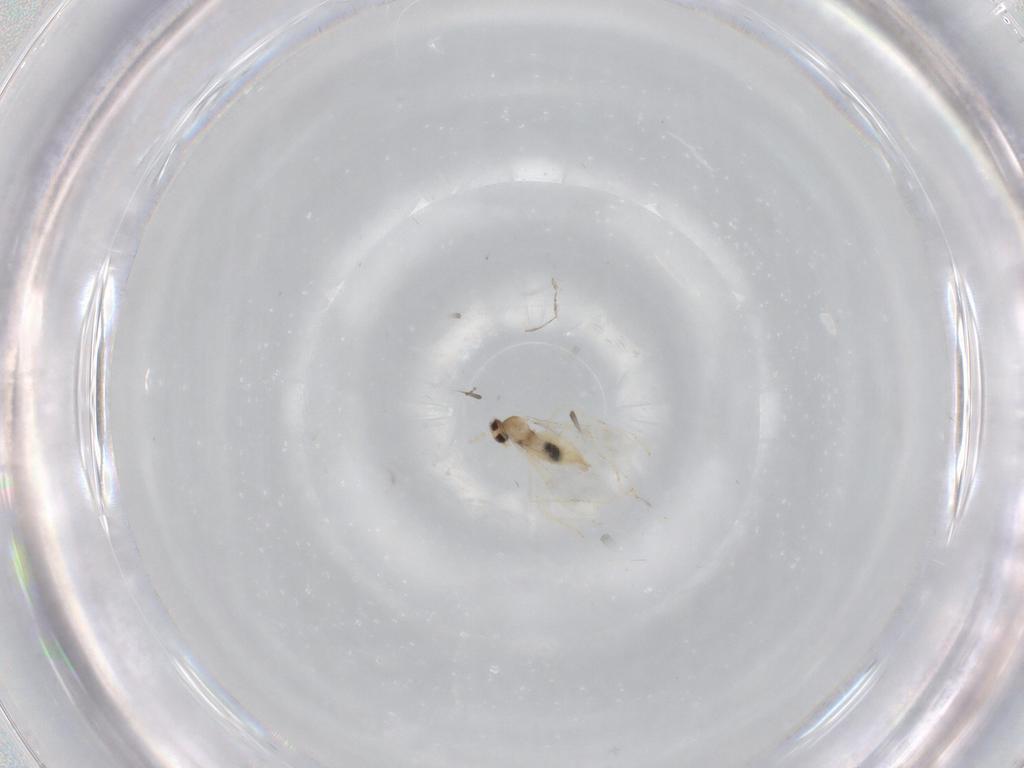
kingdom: Animalia
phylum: Arthropoda
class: Insecta
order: Diptera
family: Cecidomyiidae
